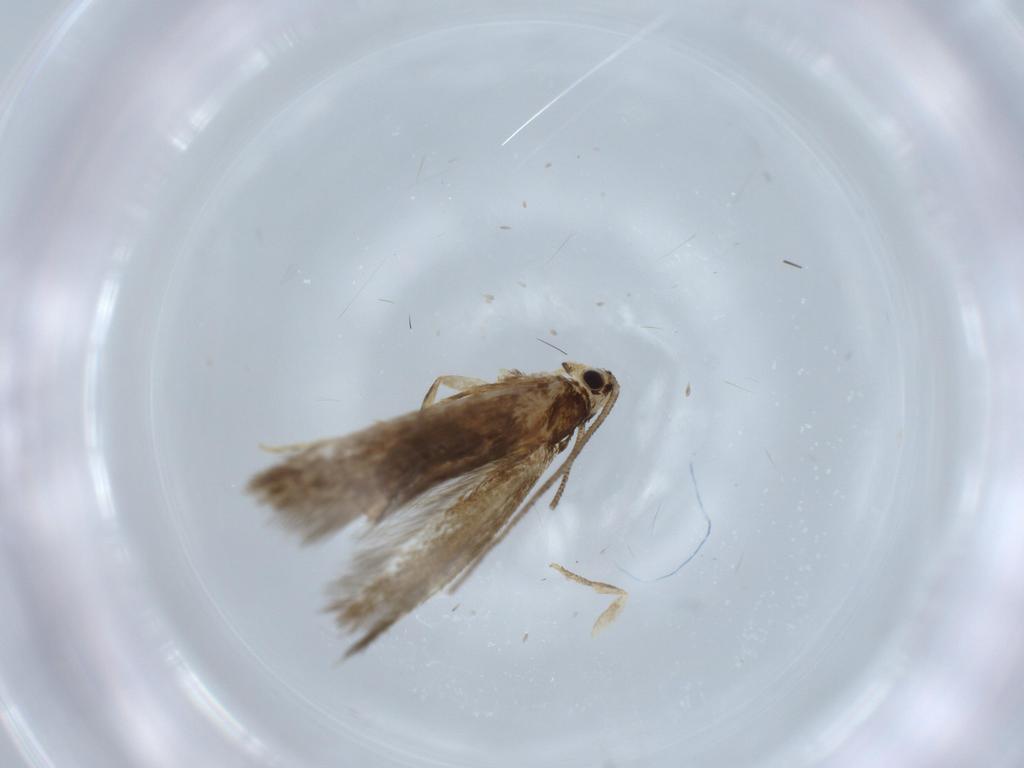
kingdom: Animalia
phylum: Arthropoda
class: Insecta
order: Lepidoptera
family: Tineidae
